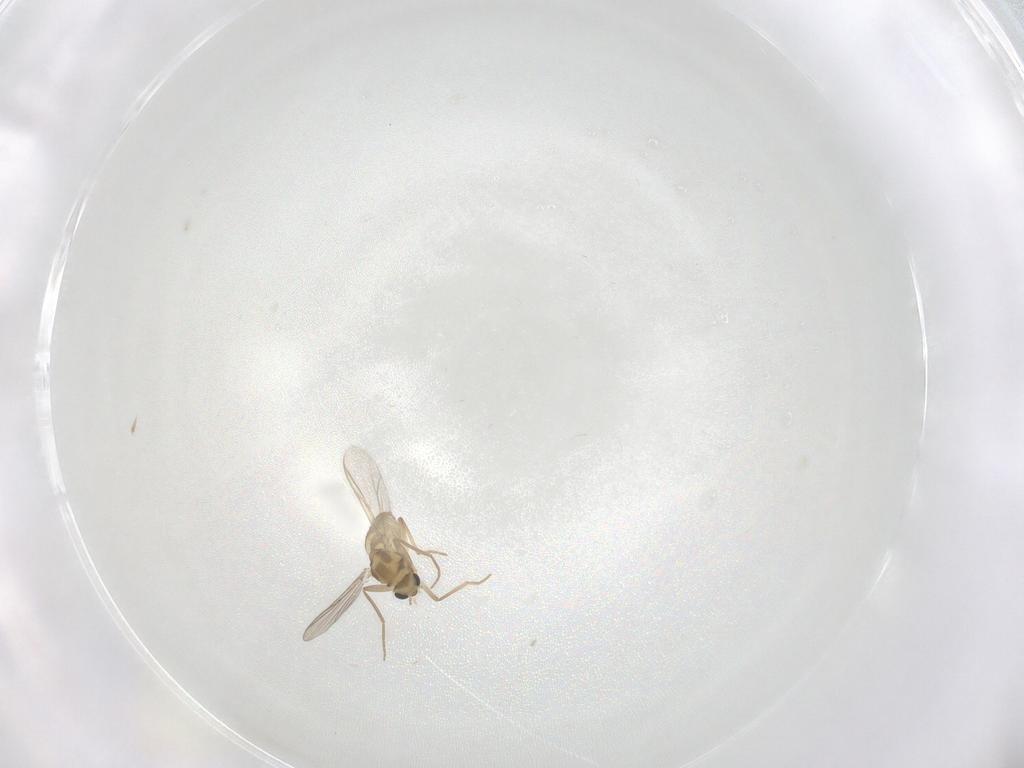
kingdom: Animalia
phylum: Arthropoda
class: Insecta
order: Diptera
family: Chironomidae
